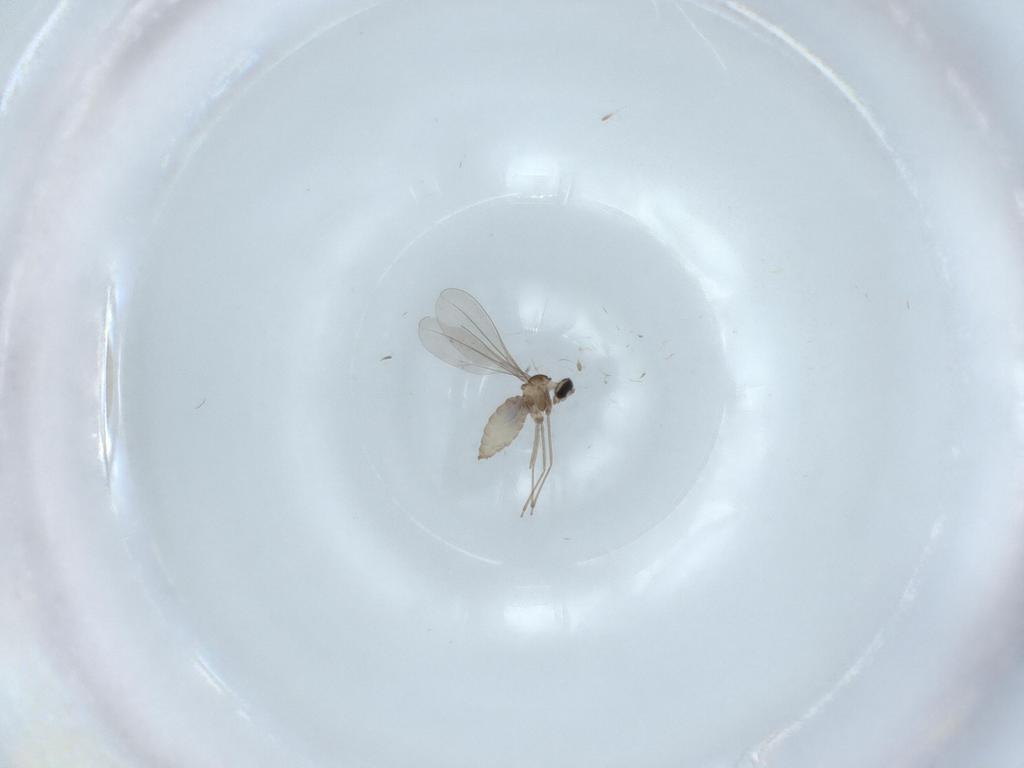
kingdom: Animalia
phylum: Arthropoda
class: Insecta
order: Diptera
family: Cecidomyiidae
